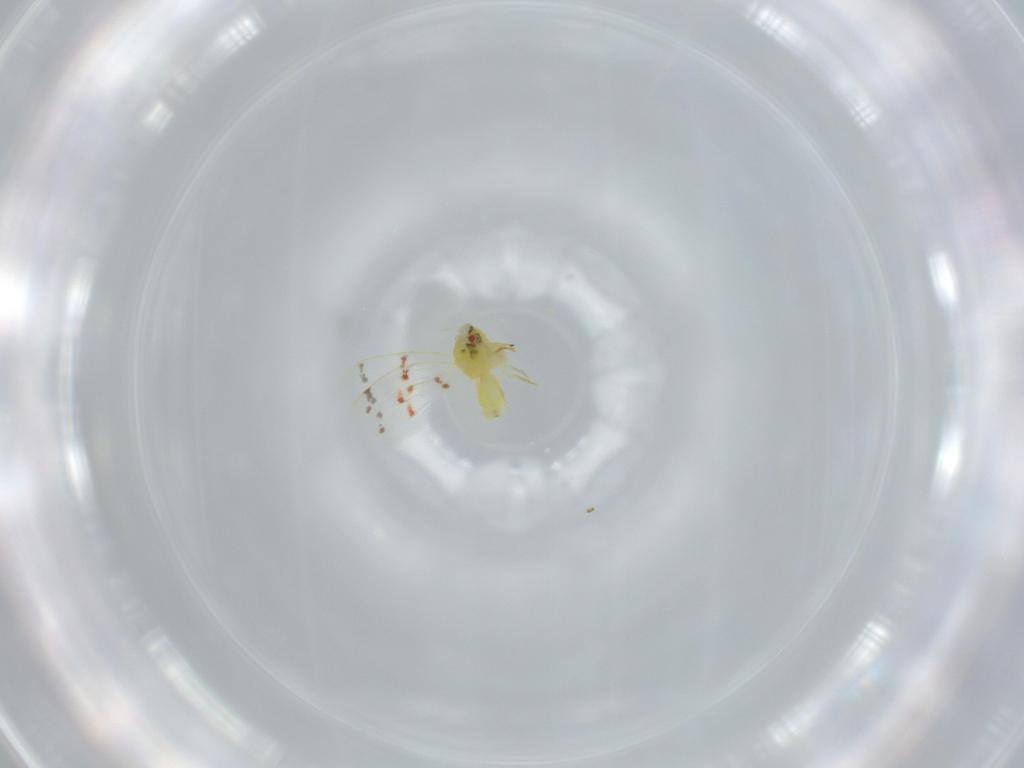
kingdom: Animalia
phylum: Arthropoda
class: Insecta
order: Hemiptera
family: Aleyrodidae
